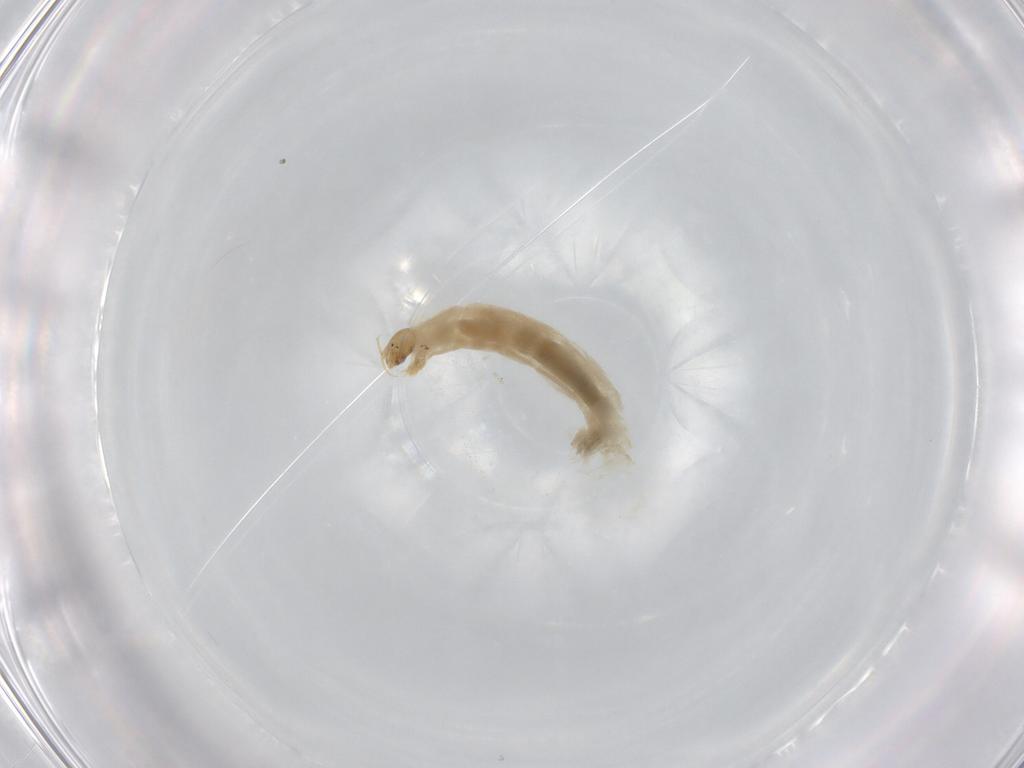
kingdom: Animalia
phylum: Arthropoda
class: Insecta
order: Diptera
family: Chironomidae
